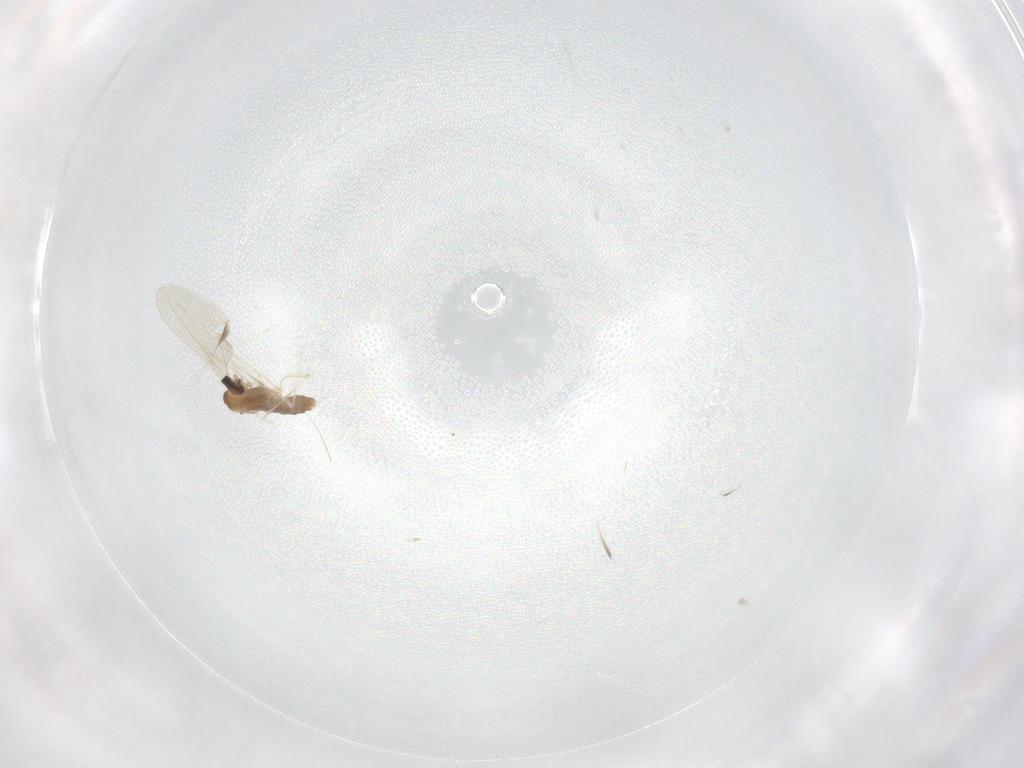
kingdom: Animalia
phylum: Arthropoda
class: Insecta
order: Diptera
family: Cecidomyiidae
